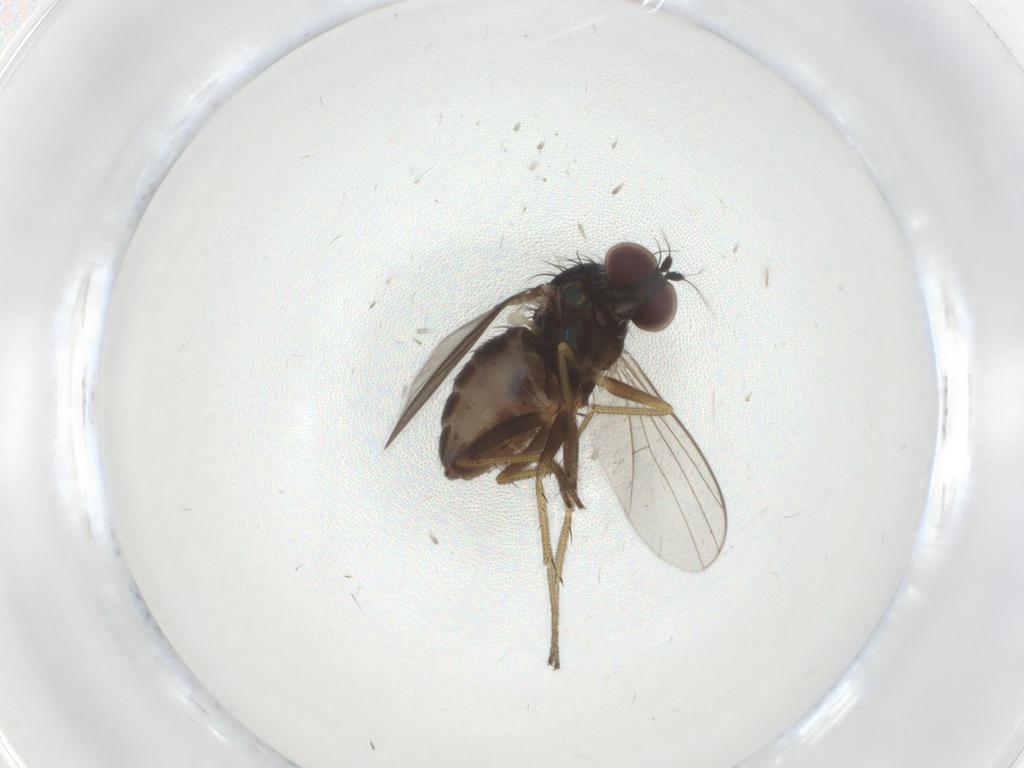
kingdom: Animalia
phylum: Arthropoda
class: Insecta
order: Diptera
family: Chironomidae
